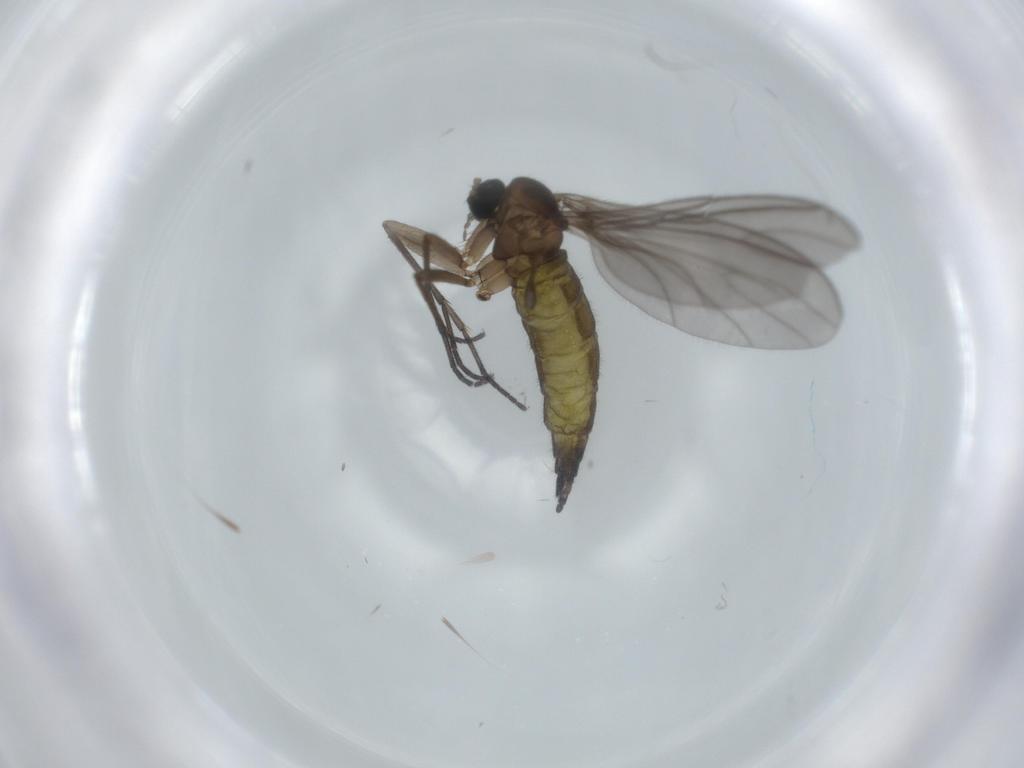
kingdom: Animalia
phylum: Arthropoda
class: Insecta
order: Diptera
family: Sciaridae
